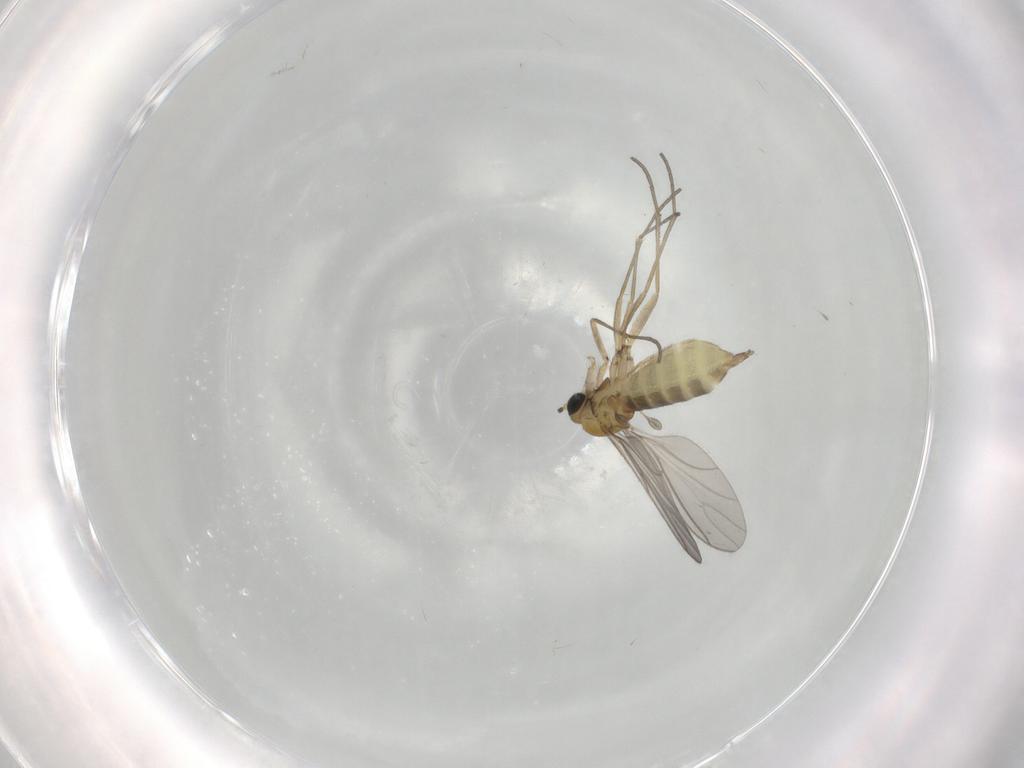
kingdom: Animalia
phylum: Arthropoda
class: Insecta
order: Diptera
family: Sciaridae
